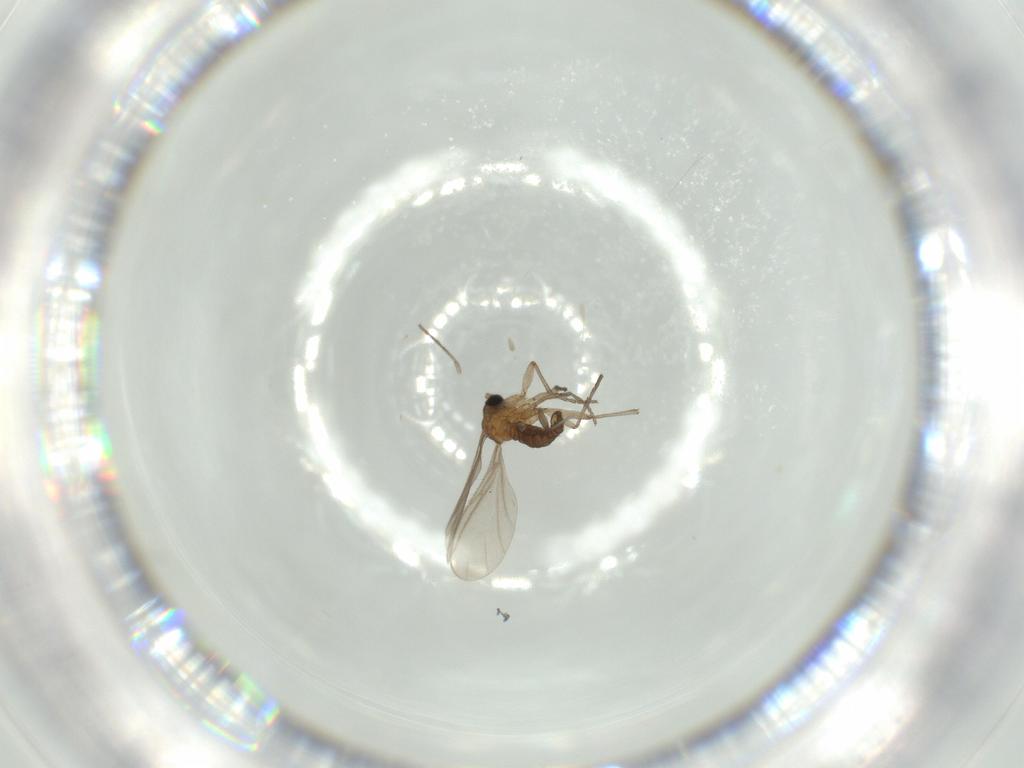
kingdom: Animalia
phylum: Arthropoda
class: Insecta
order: Diptera
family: Sciaridae
